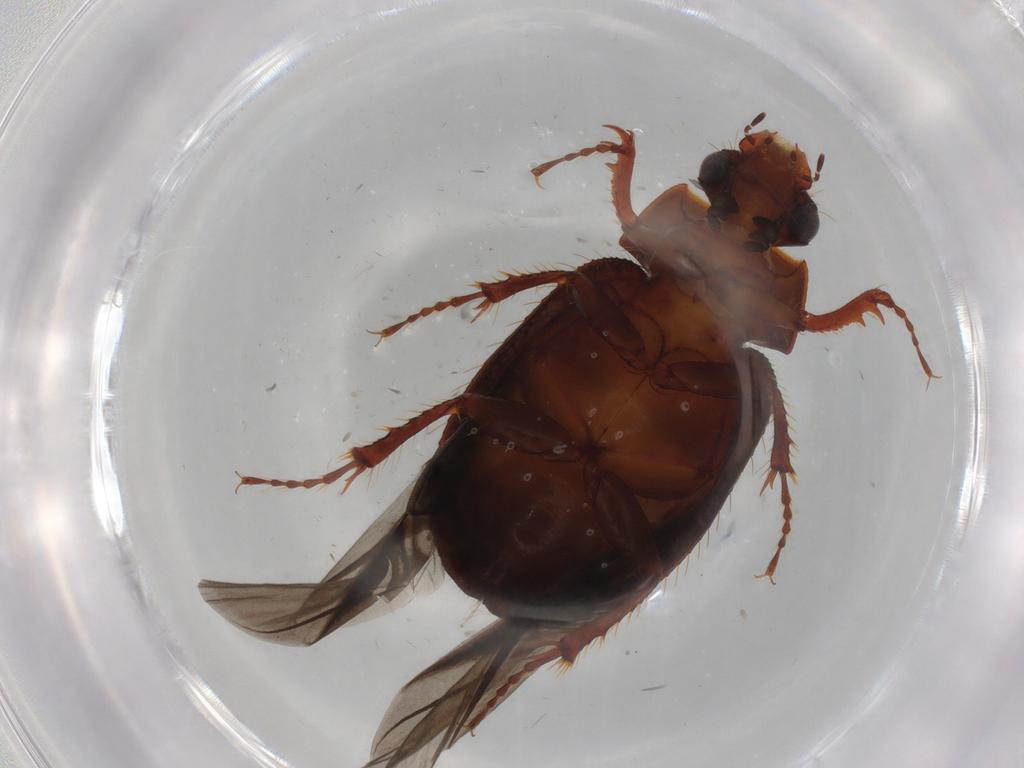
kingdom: Animalia
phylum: Arthropoda
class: Insecta
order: Coleoptera
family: Hybosoridae
